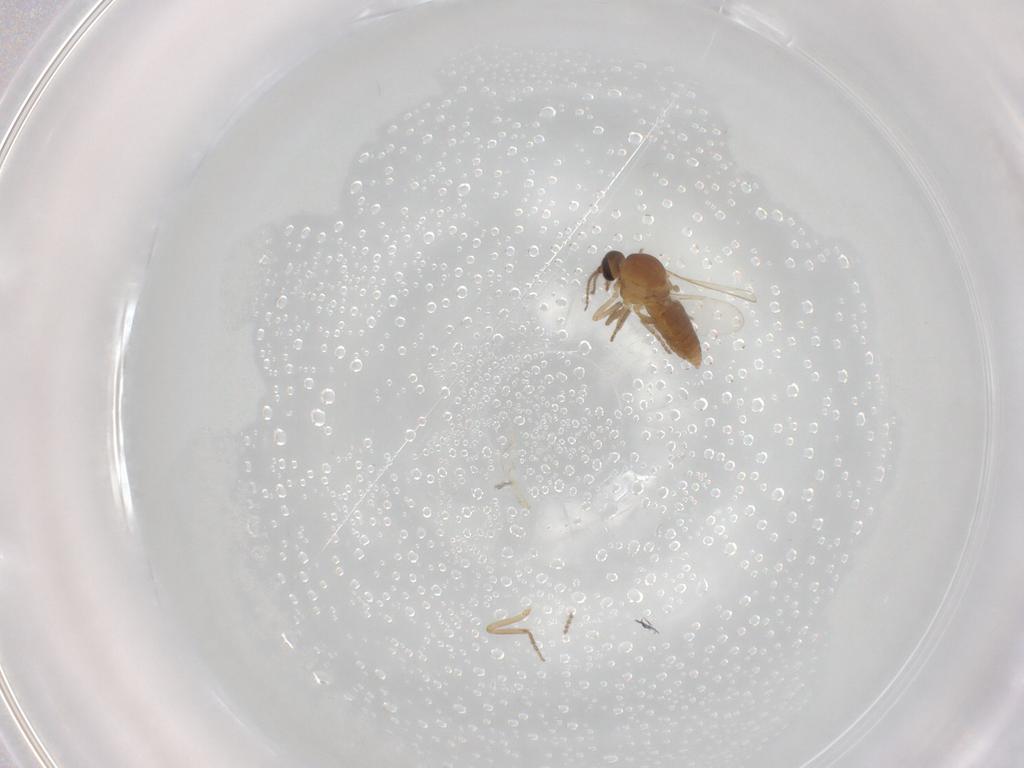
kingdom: Animalia
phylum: Arthropoda
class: Insecta
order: Diptera
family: Ceratopogonidae
